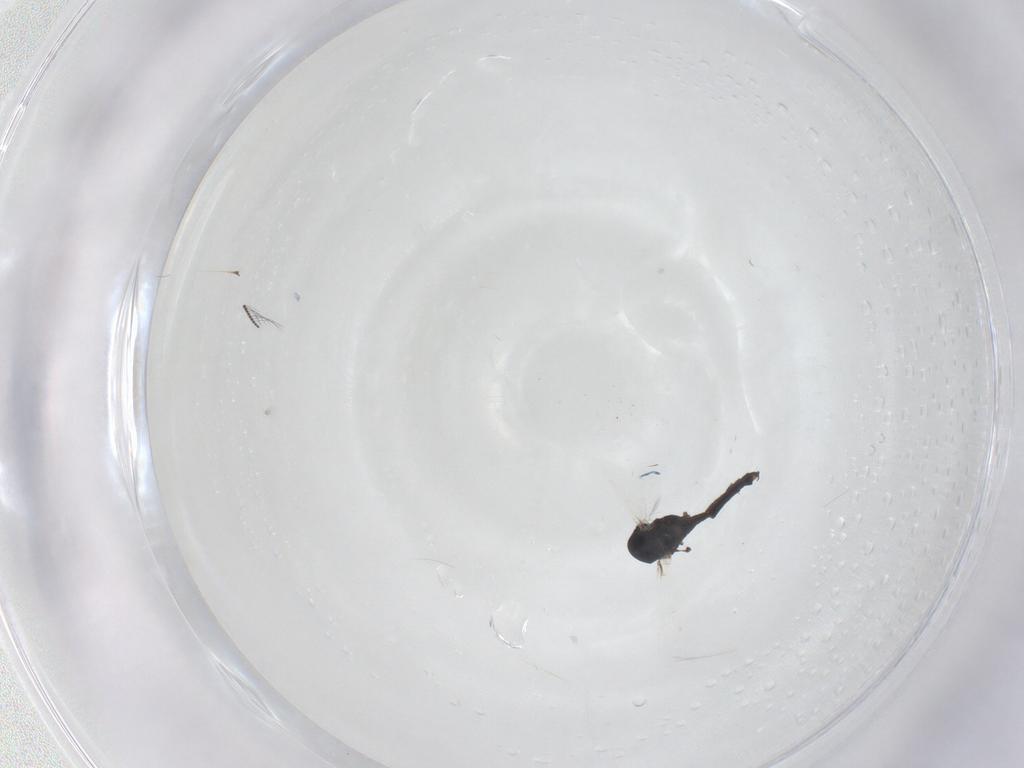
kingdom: Animalia
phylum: Arthropoda
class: Insecta
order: Diptera
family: Chironomidae
